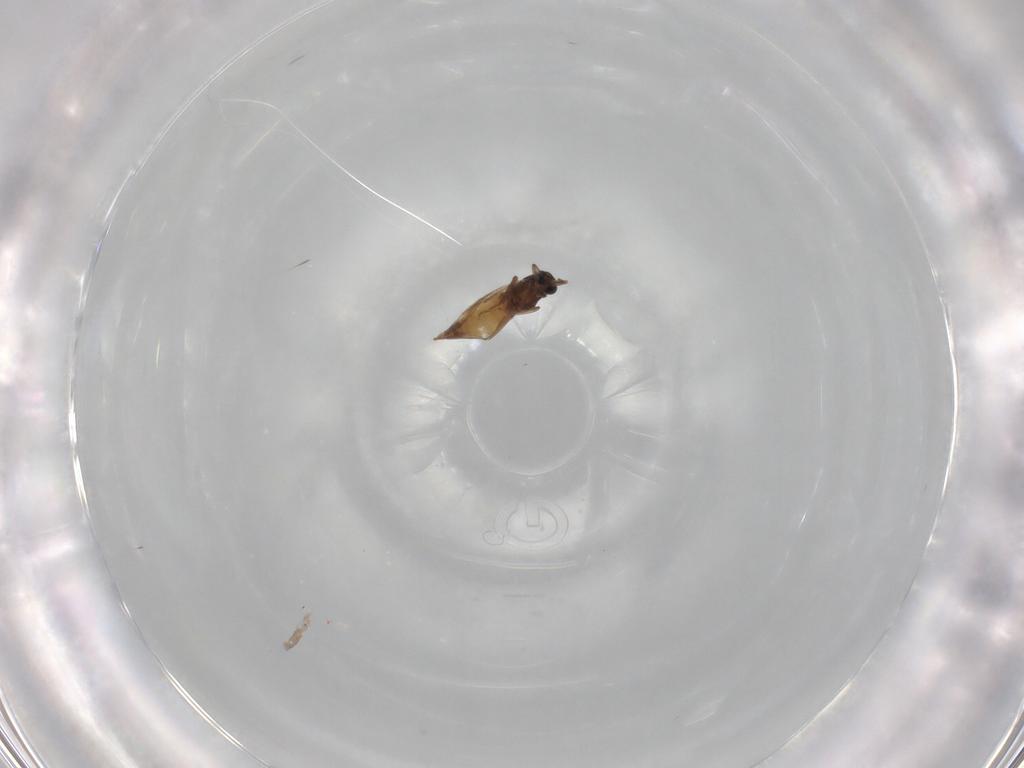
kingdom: Animalia
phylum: Arthropoda
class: Insecta
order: Diptera
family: Chironomidae
